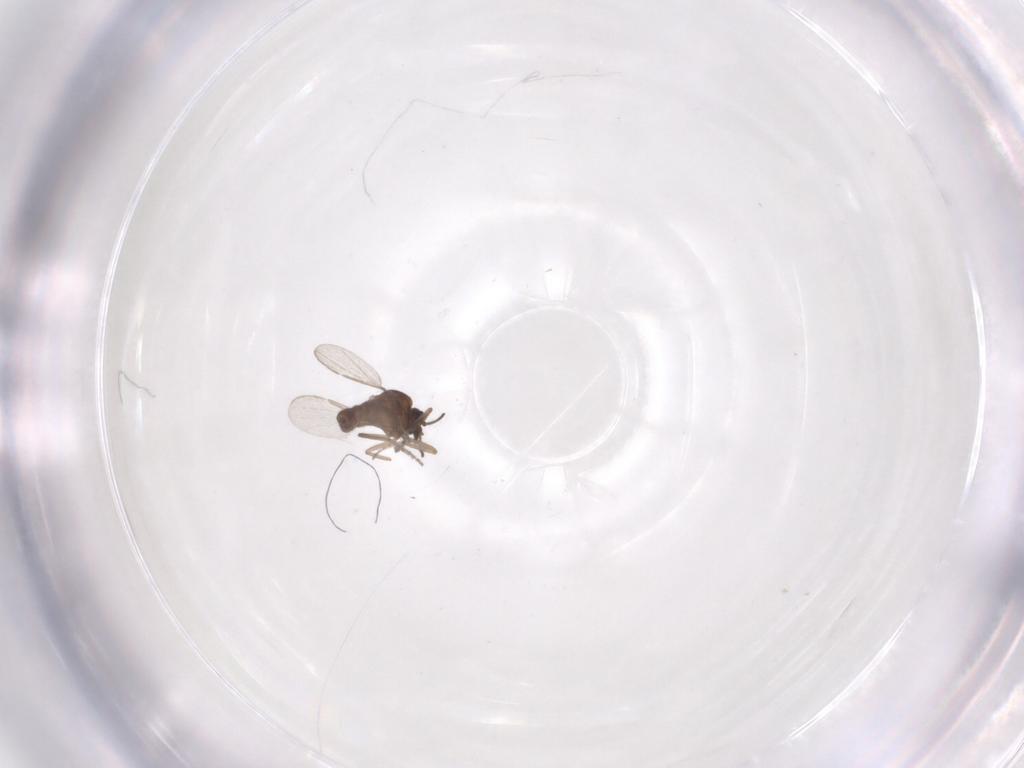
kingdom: Animalia
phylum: Arthropoda
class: Insecta
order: Diptera
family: Ceratopogonidae
